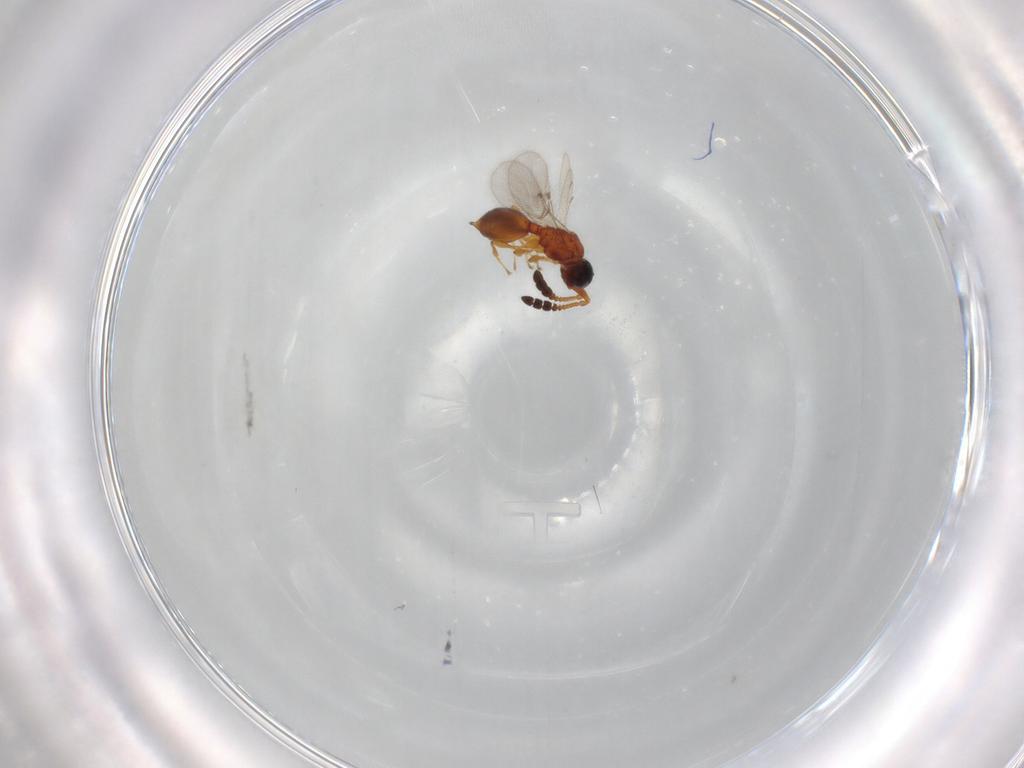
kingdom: Animalia
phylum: Arthropoda
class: Insecta
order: Hymenoptera
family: Diapriidae
